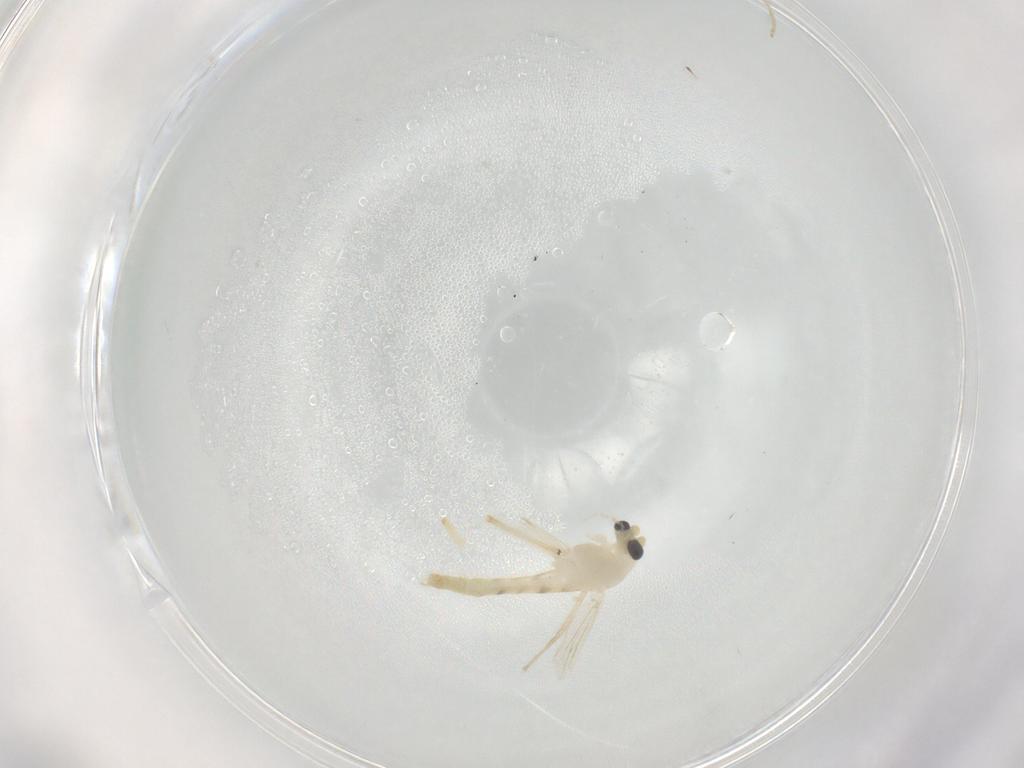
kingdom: Animalia
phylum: Arthropoda
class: Insecta
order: Diptera
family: Chironomidae
